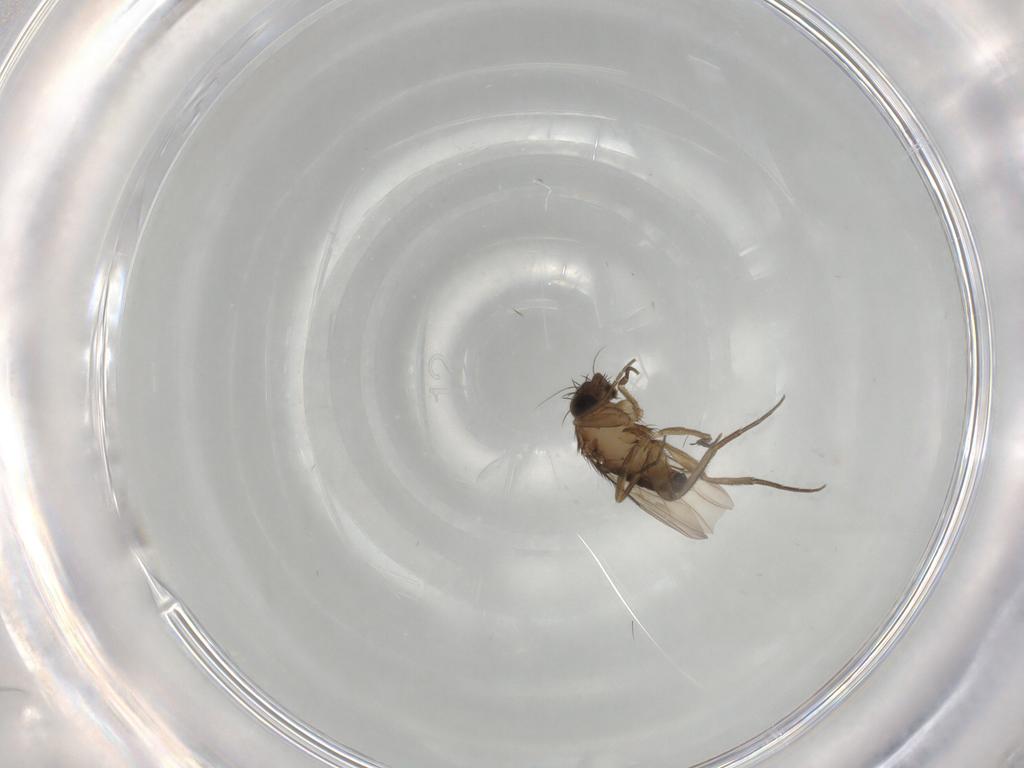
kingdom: Animalia
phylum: Arthropoda
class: Insecta
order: Diptera
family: Phoridae
